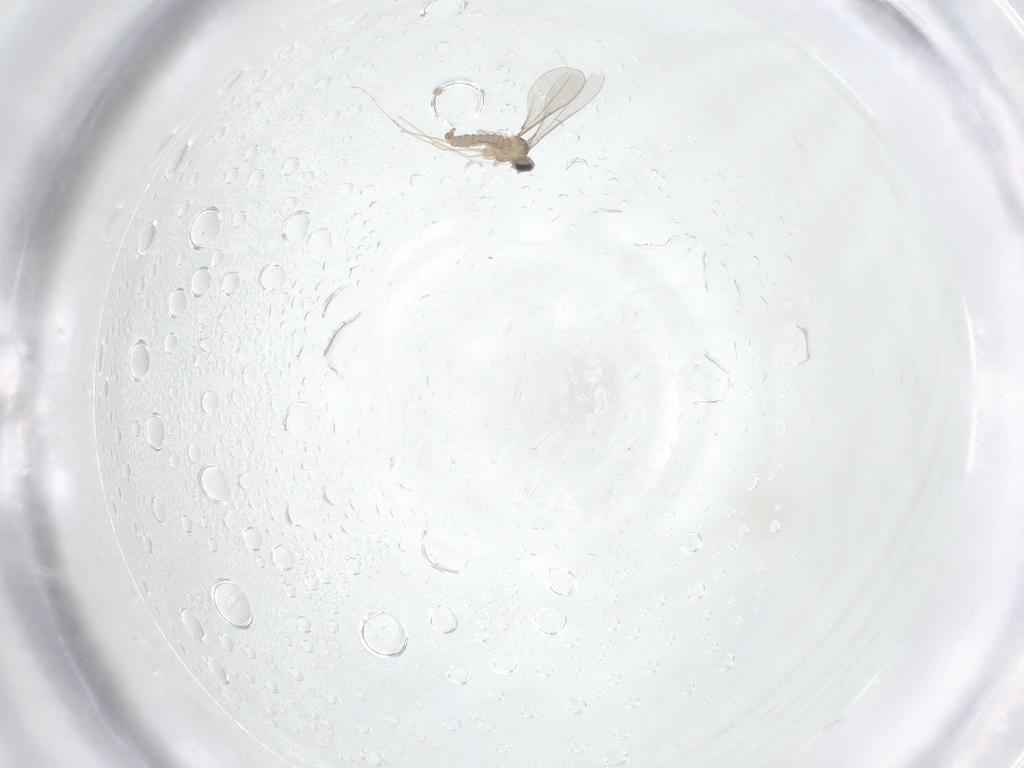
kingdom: Animalia
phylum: Arthropoda
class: Insecta
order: Diptera
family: Cecidomyiidae
